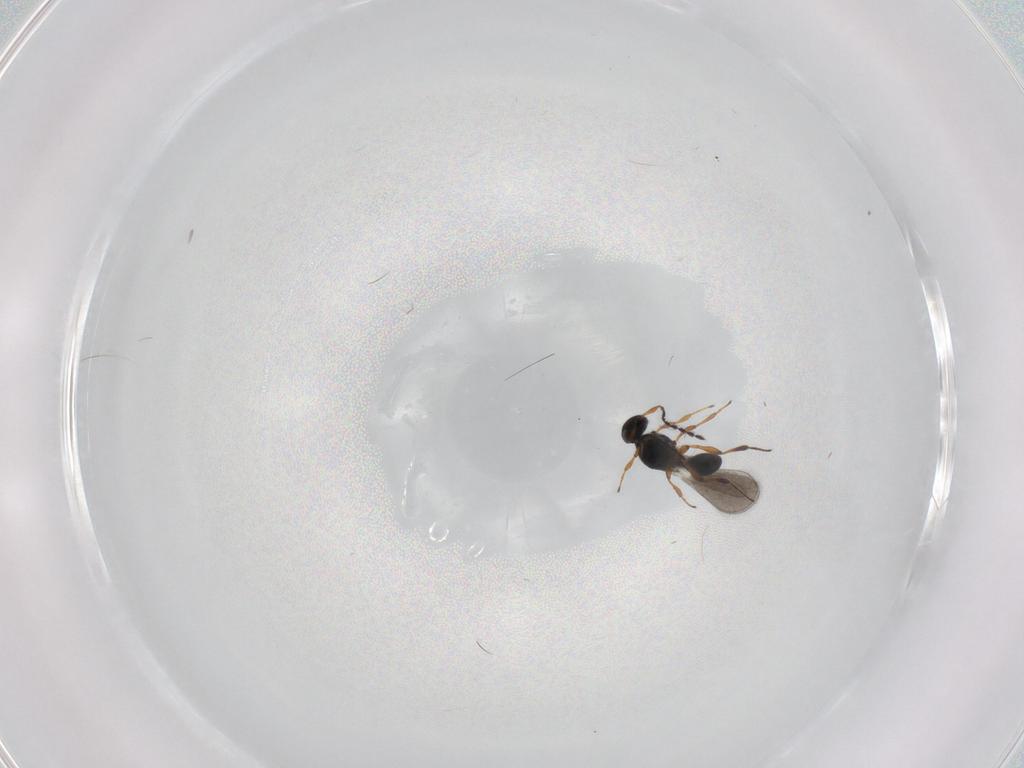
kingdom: Animalia
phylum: Arthropoda
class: Insecta
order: Hymenoptera
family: Platygastridae
